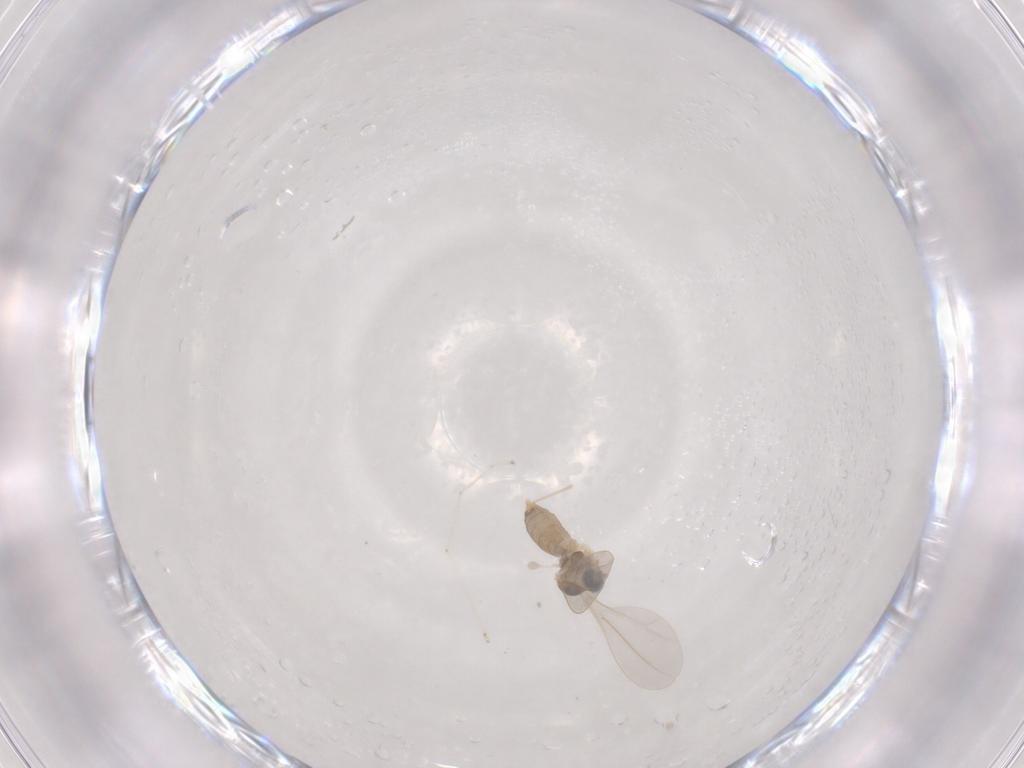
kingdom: Animalia
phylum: Arthropoda
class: Insecta
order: Diptera
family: Cecidomyiidae
